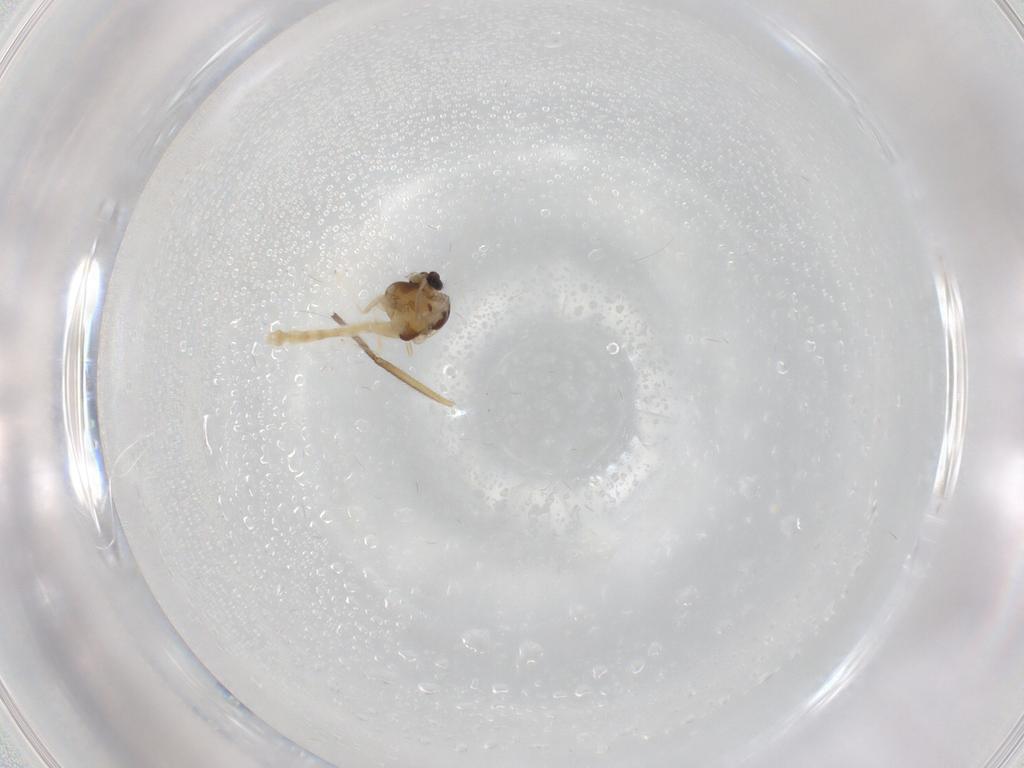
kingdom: Animalia
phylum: Arthropoda
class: Insecta
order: Diptera
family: Chironomidae
